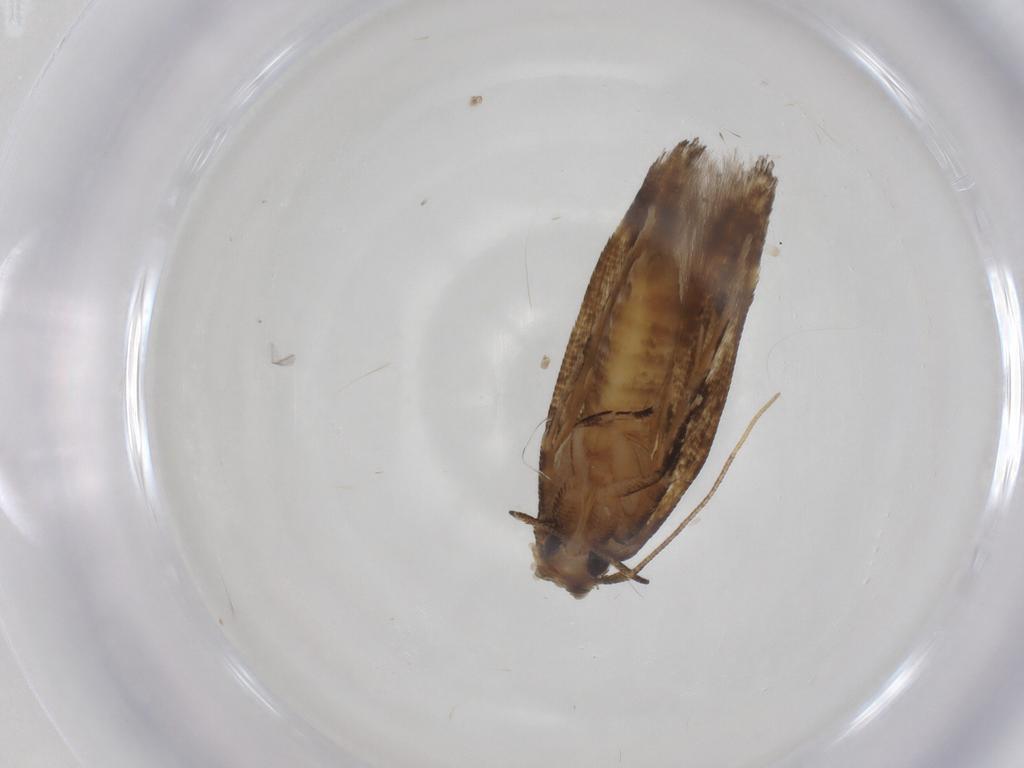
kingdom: Animalia
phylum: Arthropoda
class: Insecta
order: Lepidoptera
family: Gelechiidae
